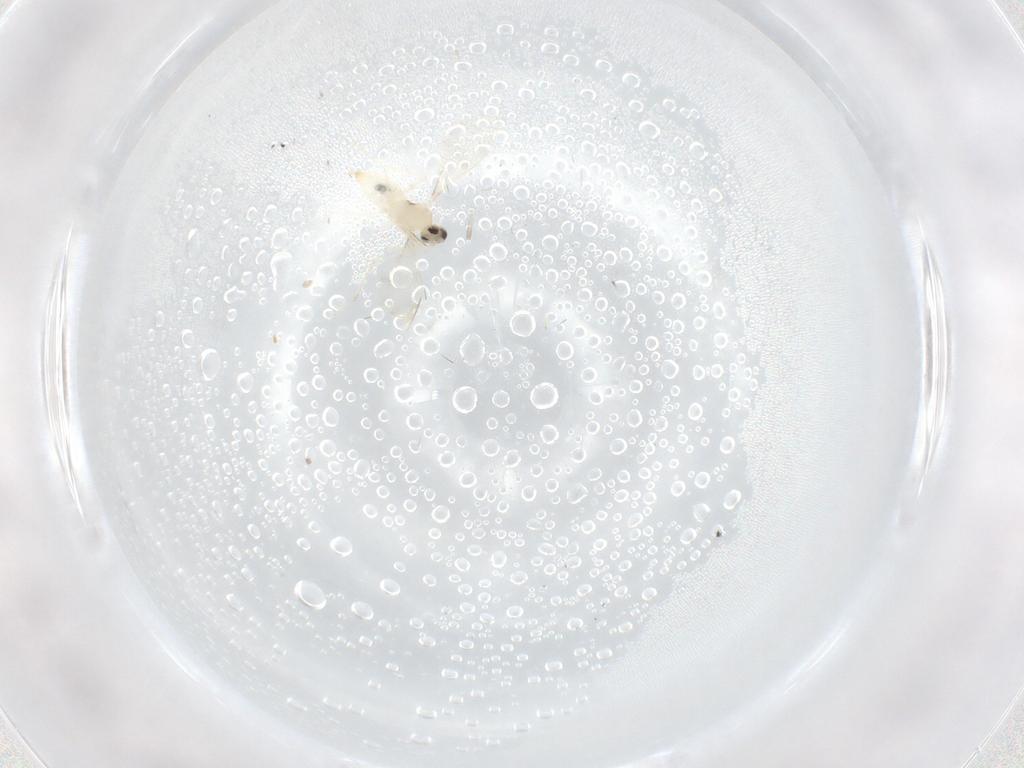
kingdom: Animalia
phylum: Arthropoda
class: Insecta
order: Diptera
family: Cecidomyiidae
